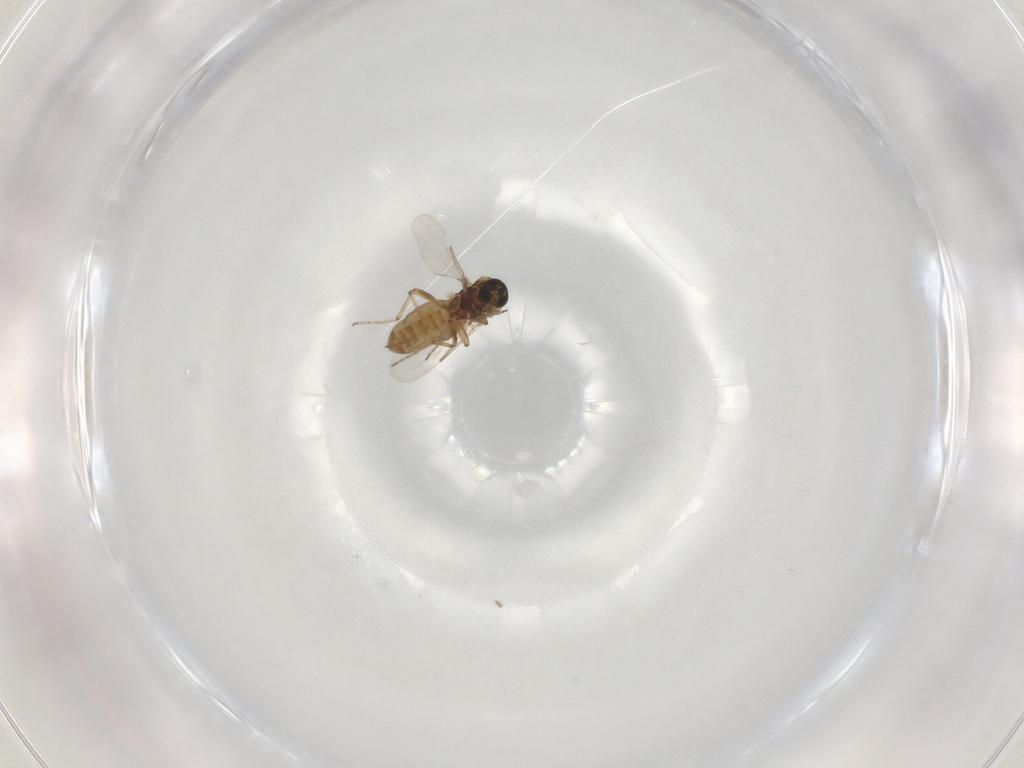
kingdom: Animalia
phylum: Arthropoda
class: Insecta
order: Diptera
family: Ceratopogonidae
